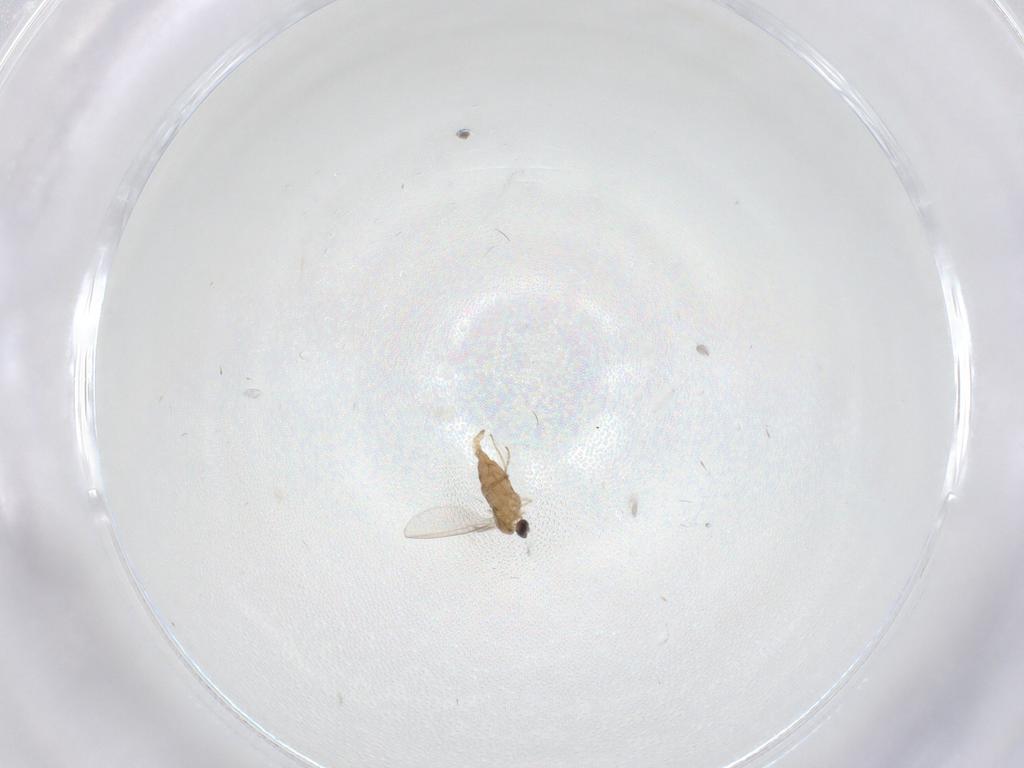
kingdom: Animalia
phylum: Arthropoda
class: Insecta
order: Diptera
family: Cecidomyiidae
